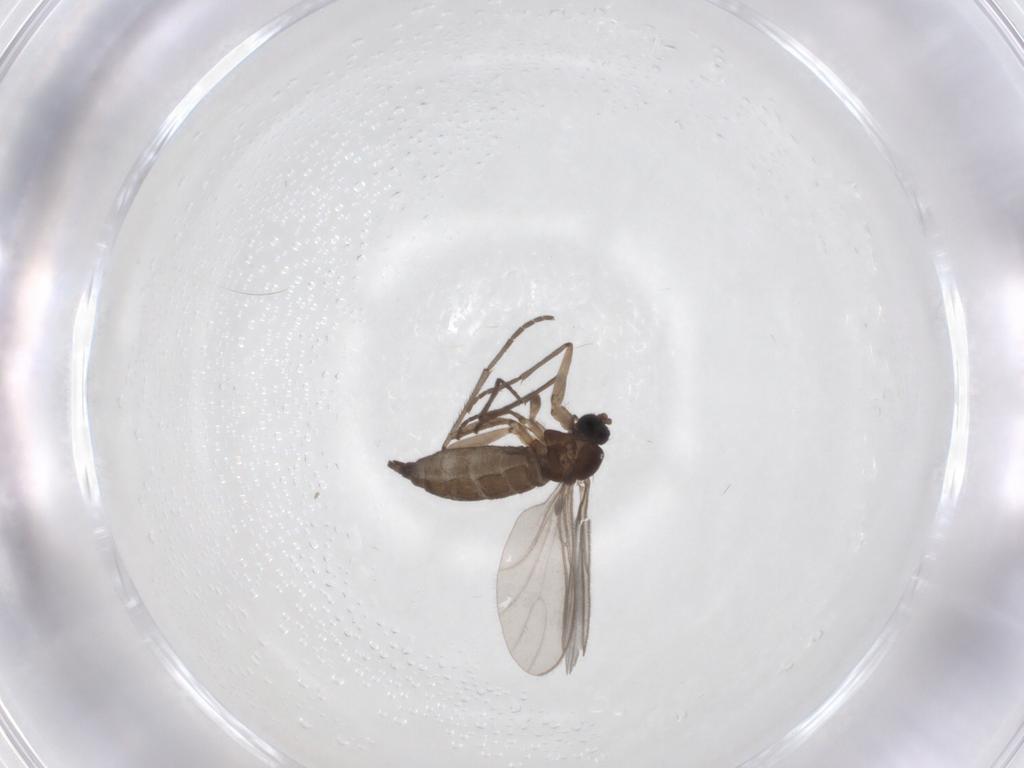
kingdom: Animalia
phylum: Arthropoda
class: Insecta
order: Diptera
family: Sciaridae
